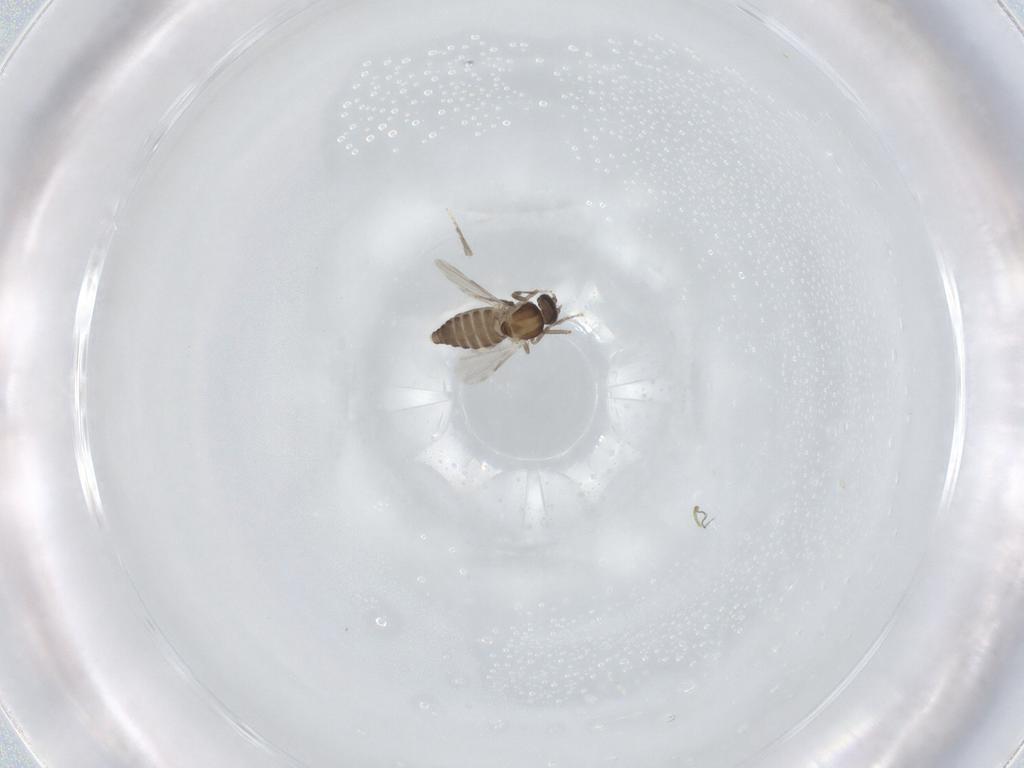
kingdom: Animalia
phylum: Arthropoda
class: Insecta
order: Diptera
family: Ceratopogonidae
